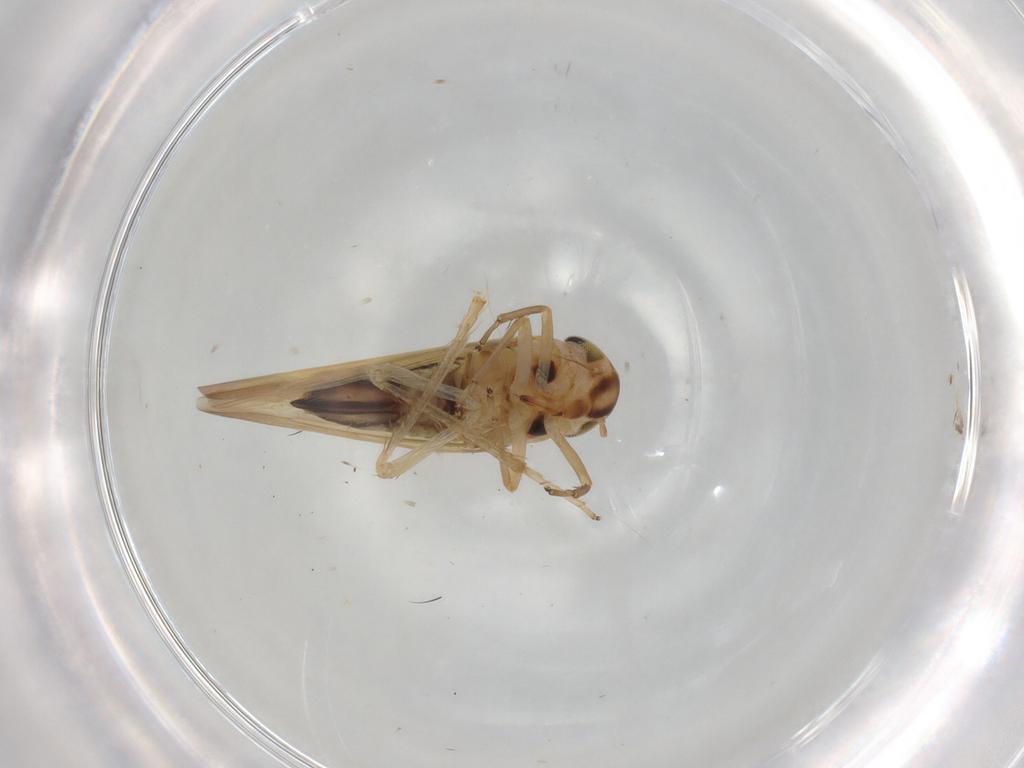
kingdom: Animalia
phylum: Arthropoda
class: Insecta
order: Hemiptera
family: Cicadellidae
